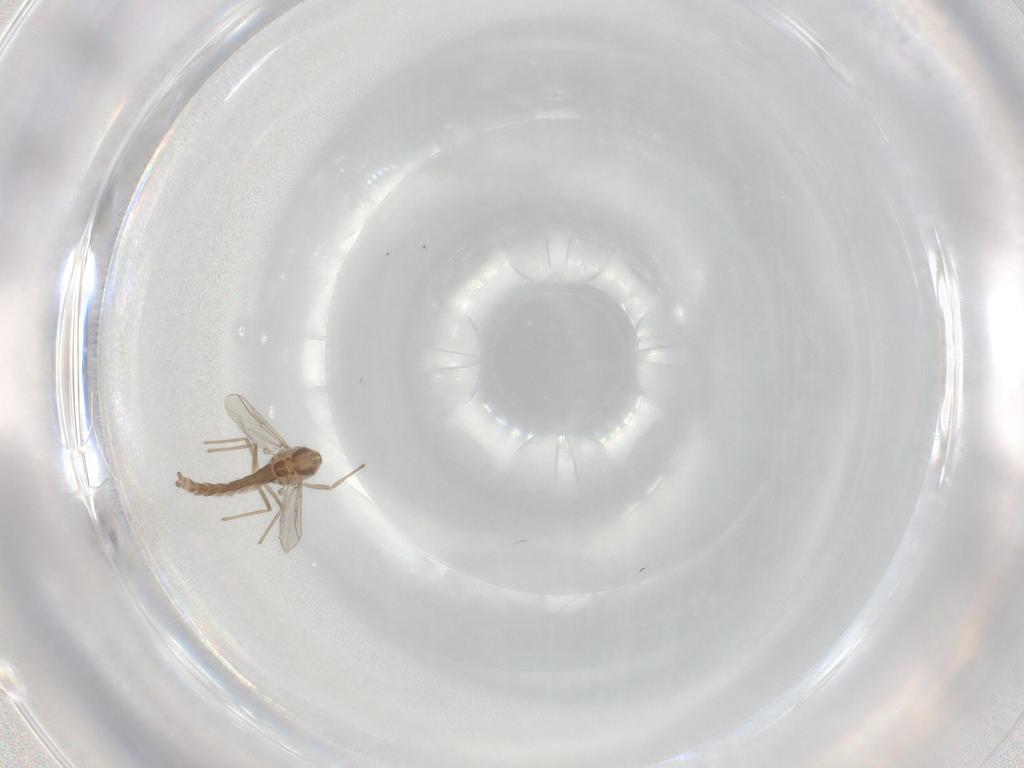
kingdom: Animalia
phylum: Arthropoda
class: Insecta
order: Diptera
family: Chironomidae
